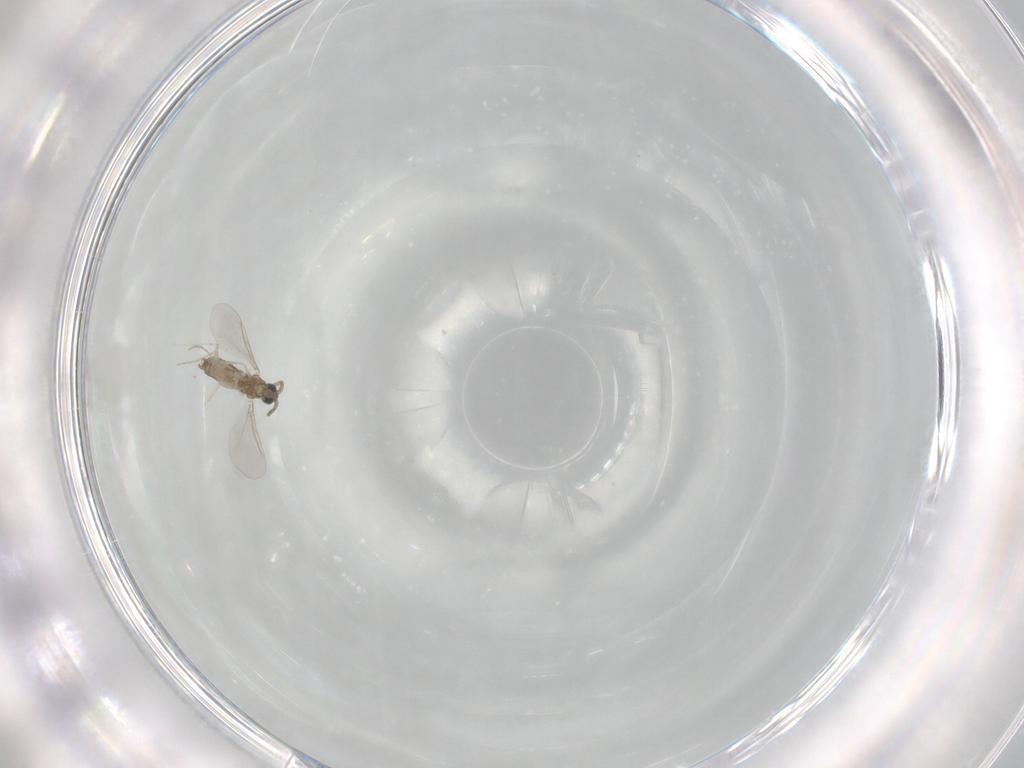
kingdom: Animalia
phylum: Arthropoda
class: Insecta
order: Diptera
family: Cecidomyiidae
